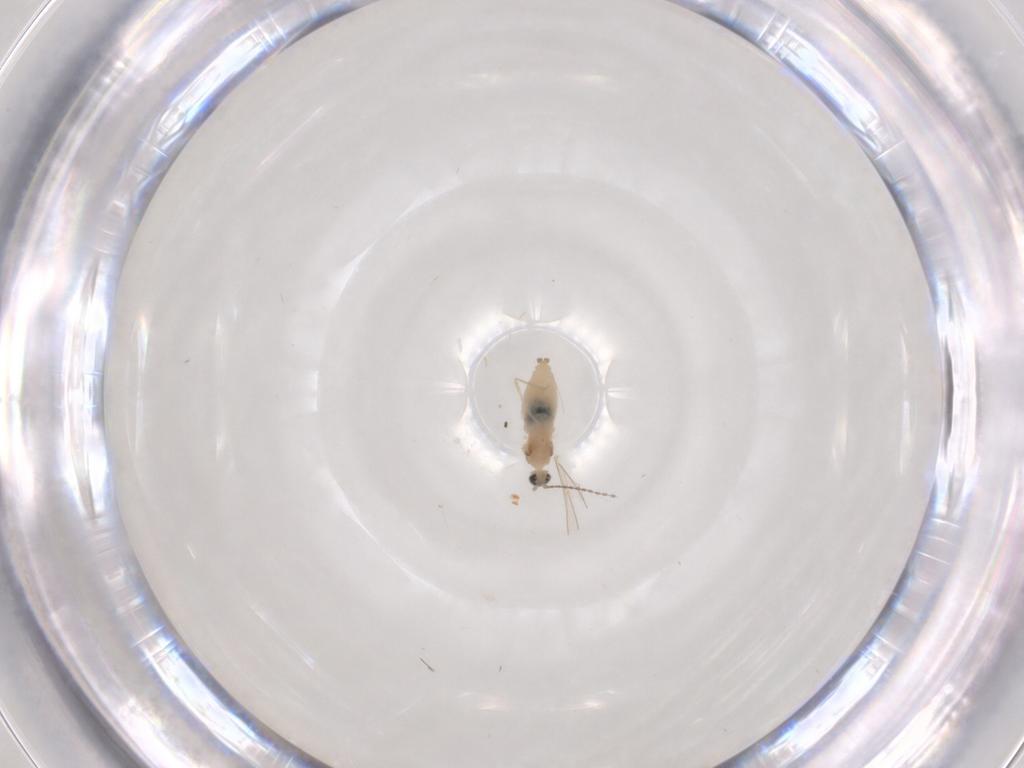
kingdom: Animalia
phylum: Arthropoda
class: Insecta
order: Diptera
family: Cecidomyiidae
